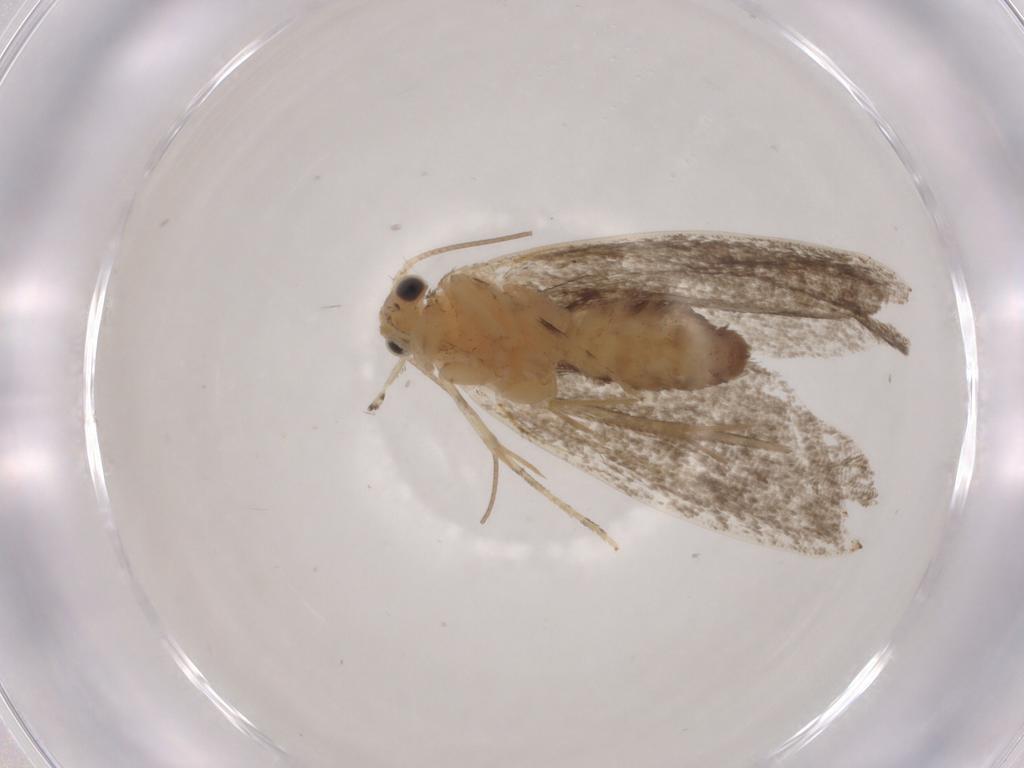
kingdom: Animalia
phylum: Arthropoda
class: Insecta
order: Lepidoptera
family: Tineidae
